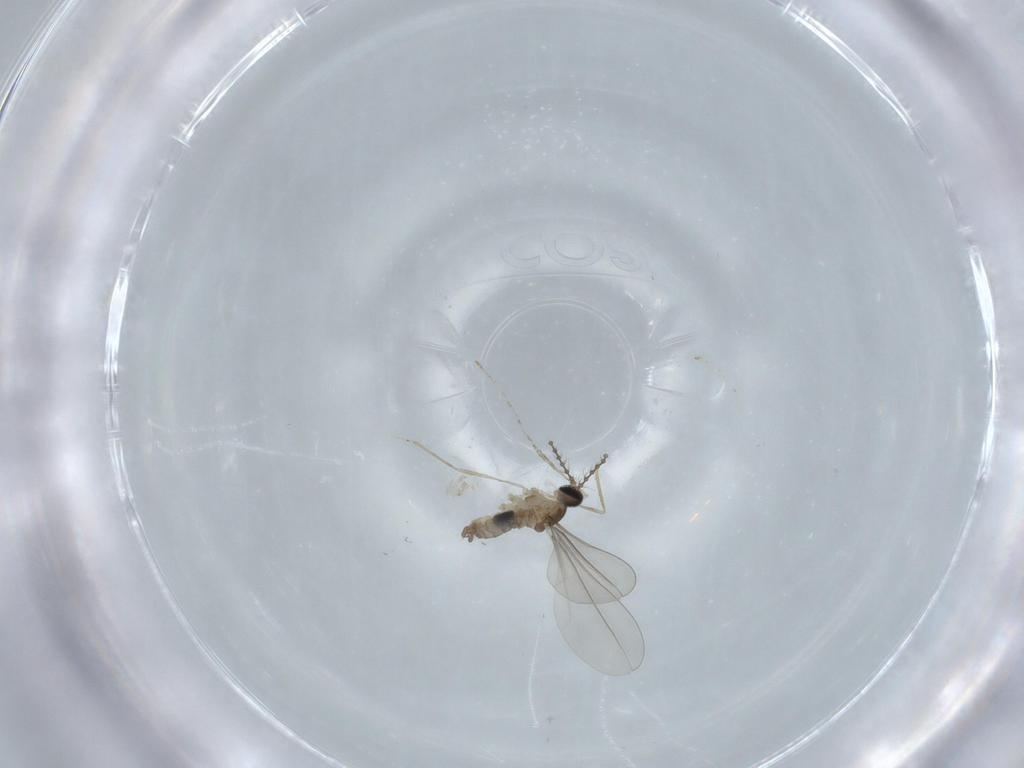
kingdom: Animalia
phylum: Arthropoda
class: Insecta
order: Diptera
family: Cecidomyiidae
